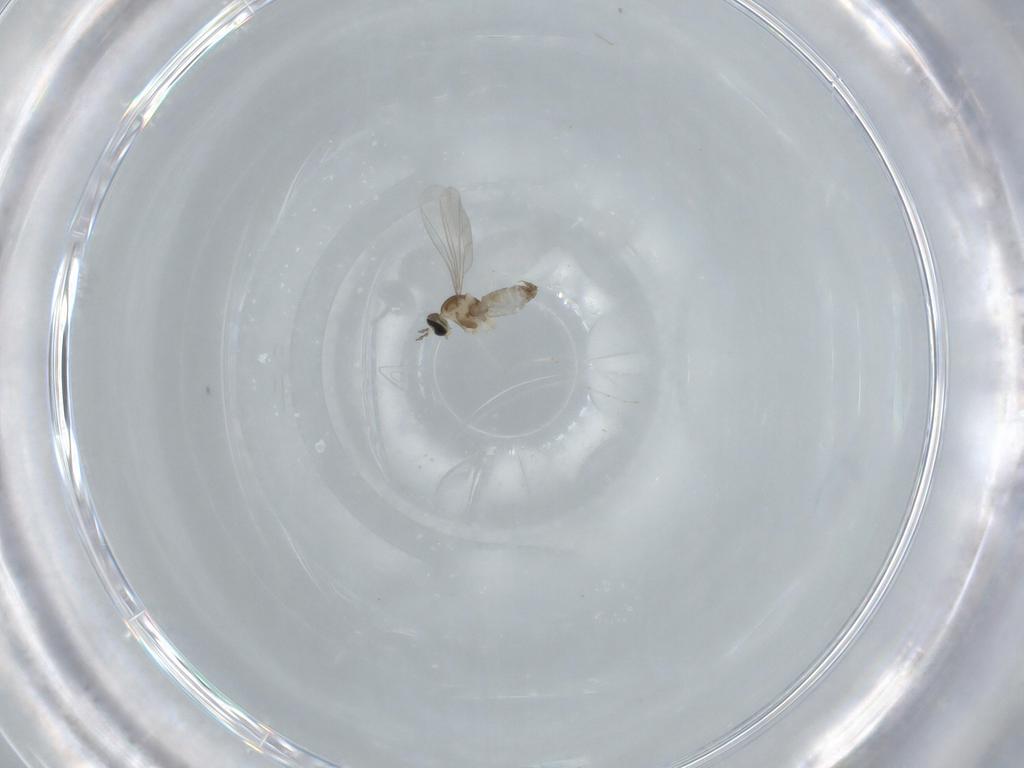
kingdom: Animalia
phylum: Arthropoda
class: Insecta
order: Diptera
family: Cecidomyiidae
